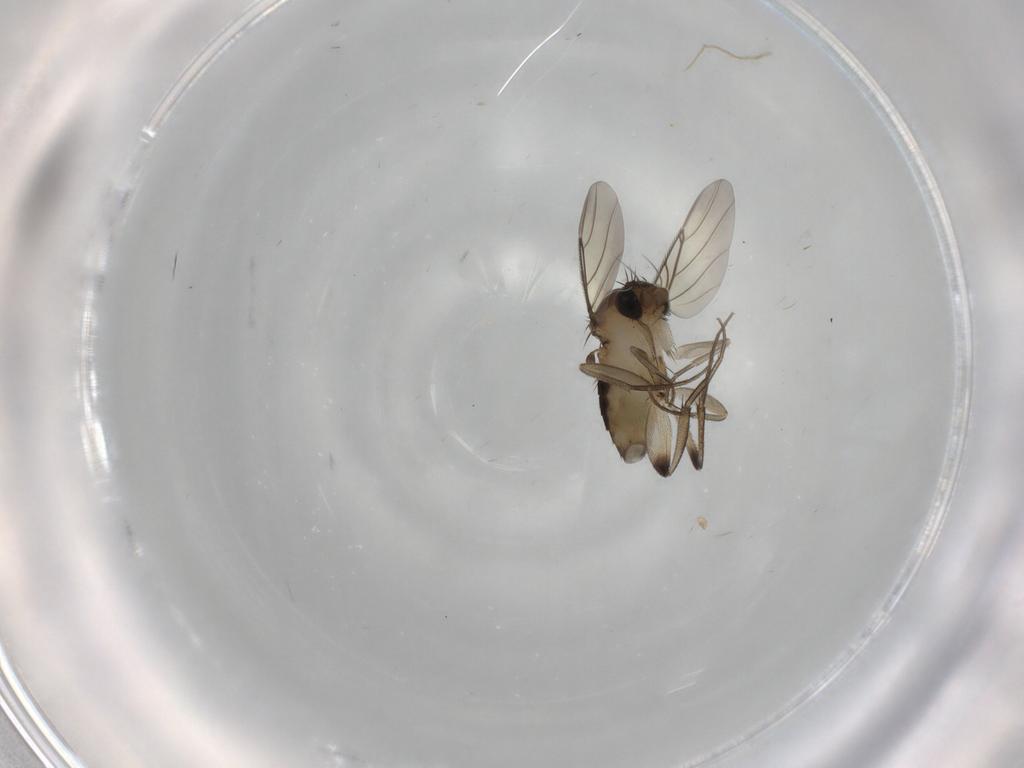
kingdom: Animalia
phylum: Arthropoda
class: Insecta
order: Diptera
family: Phoridae
